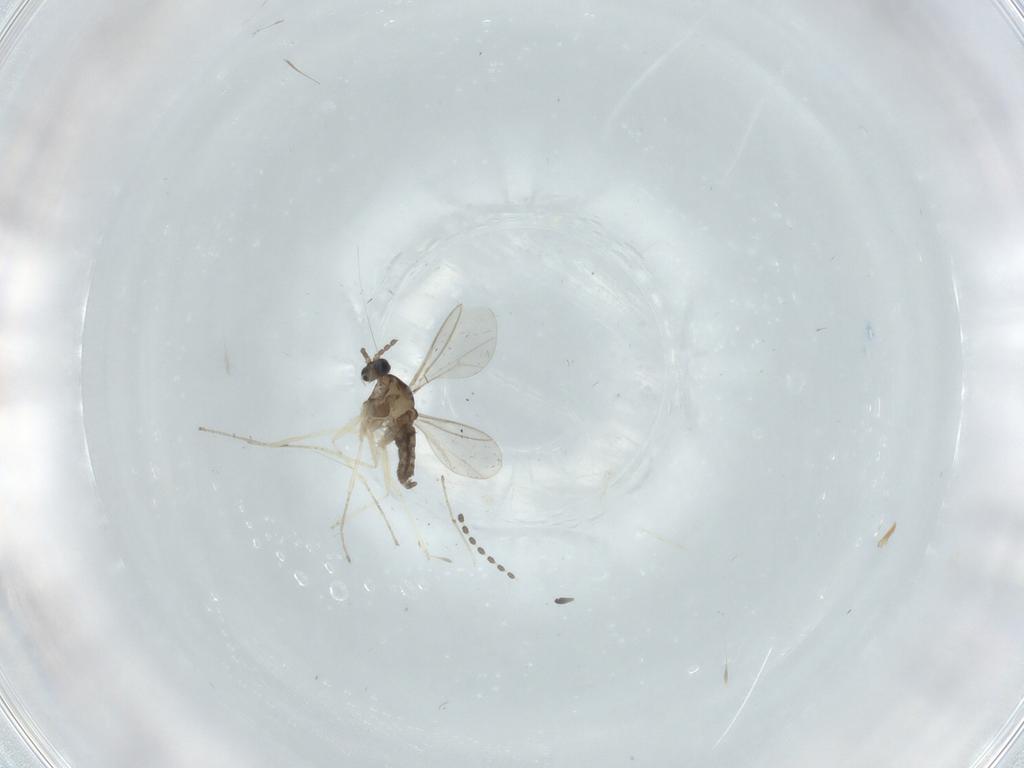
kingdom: Animalia
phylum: Arthropoda
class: Insecta
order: Diptera
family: Cecidomyiidae
